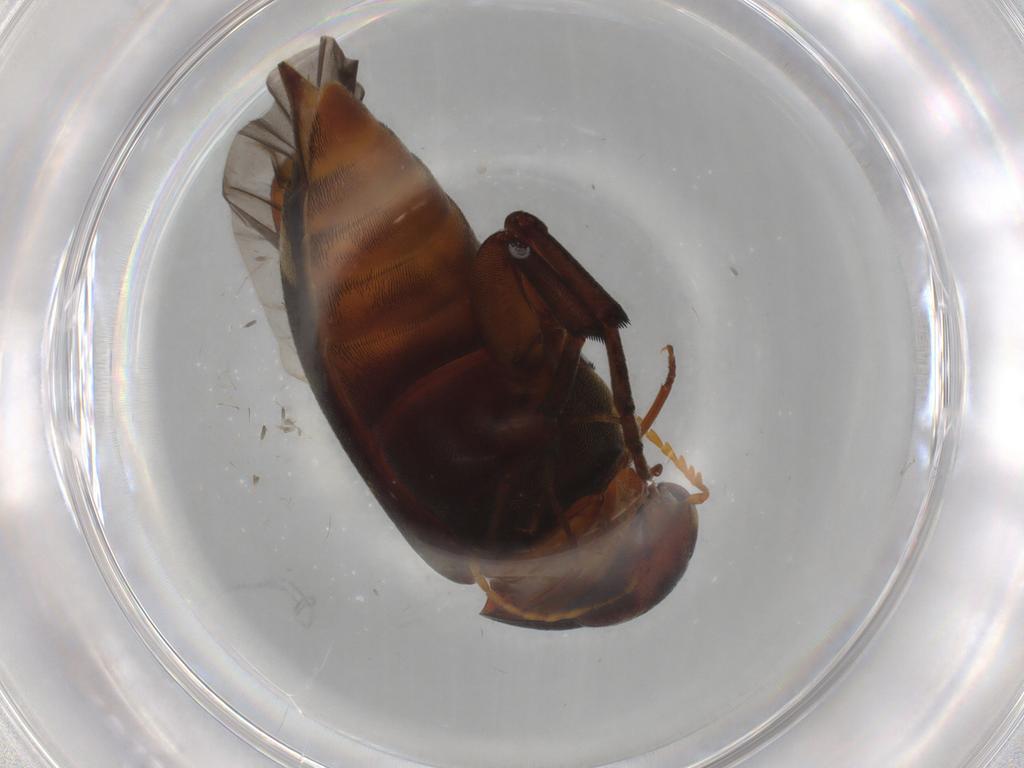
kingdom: Animalia
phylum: Arthropoda
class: Insecta
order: Coleoptera
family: Mordellidae
